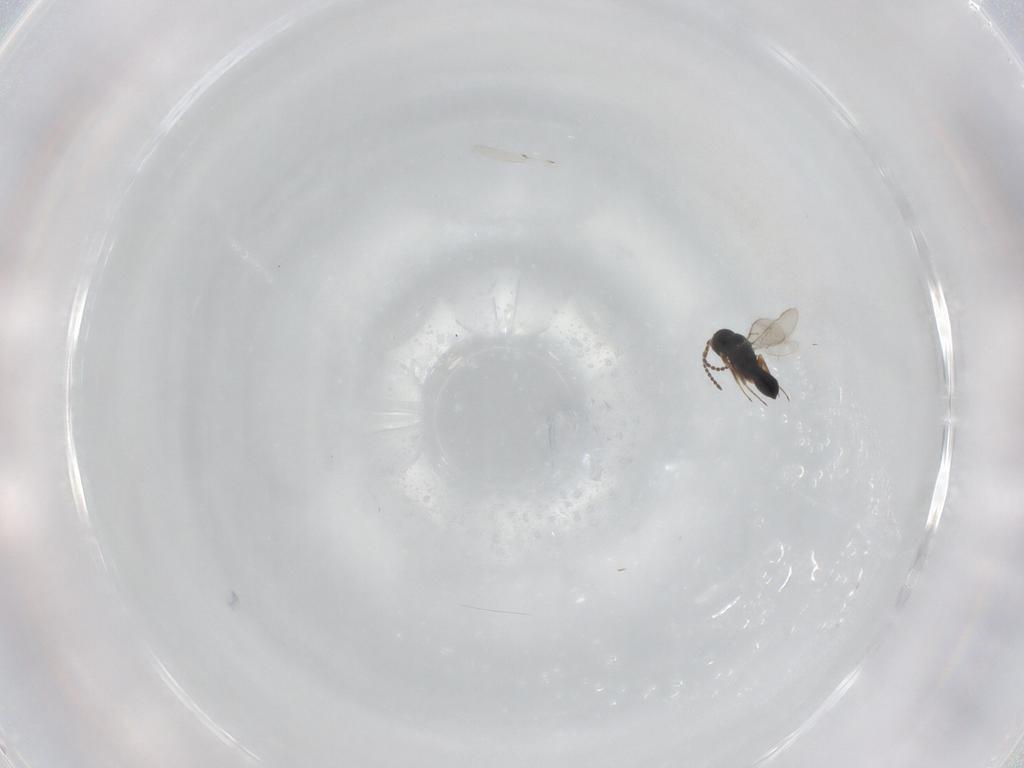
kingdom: Animalia
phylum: Arthropoda
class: Insecta
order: Hymenoptera
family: Scelionidae
